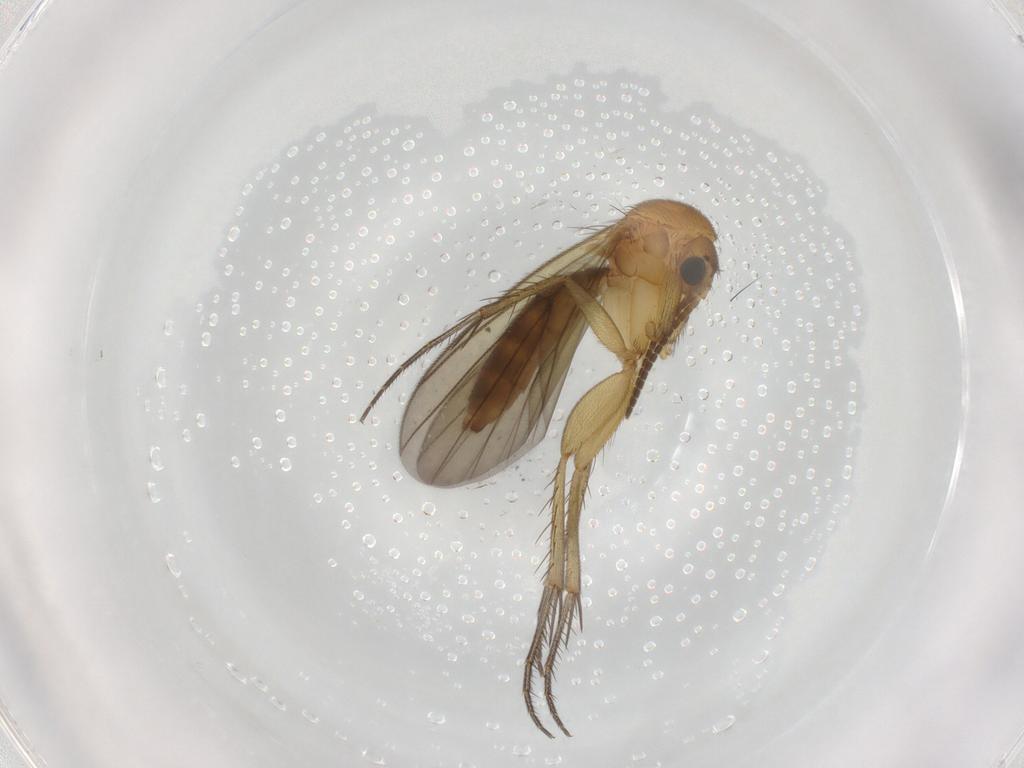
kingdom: Animalia
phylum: Arthropoda
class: Insecta
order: Diptera
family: Mycetophilidae
